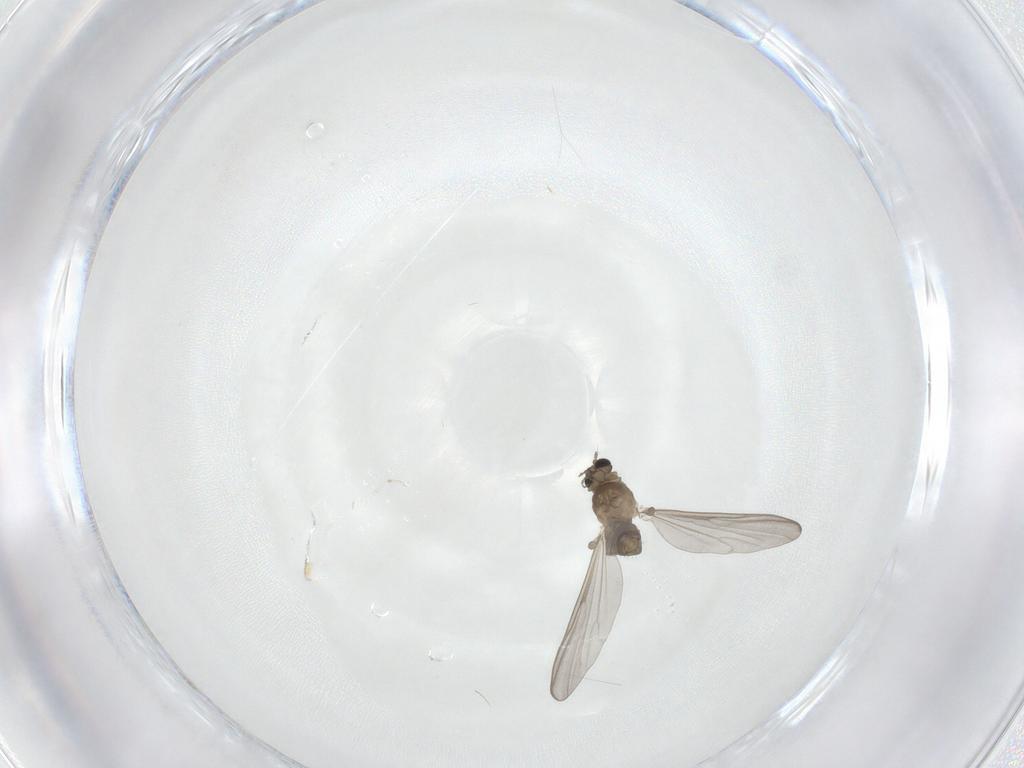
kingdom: Animalia
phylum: Arthropoda
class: Insecta
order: Diptera
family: Chironomidae
